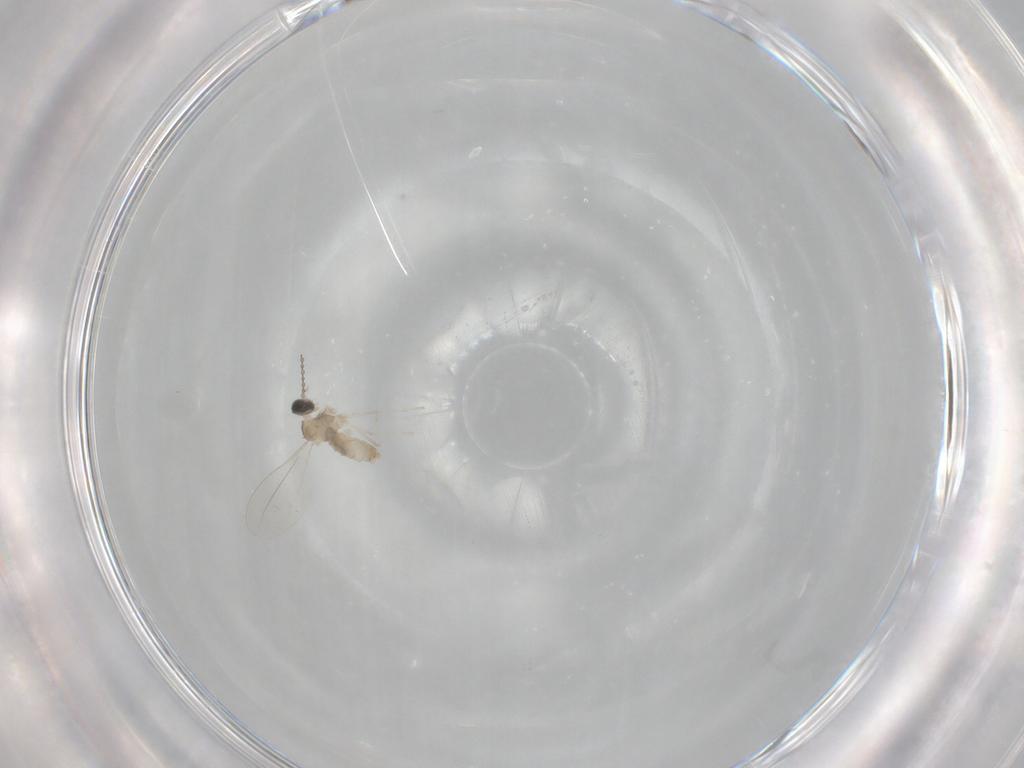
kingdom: Animalia
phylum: Arthropoda
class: Insecta
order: Diptera
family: Cecidomyiidae
